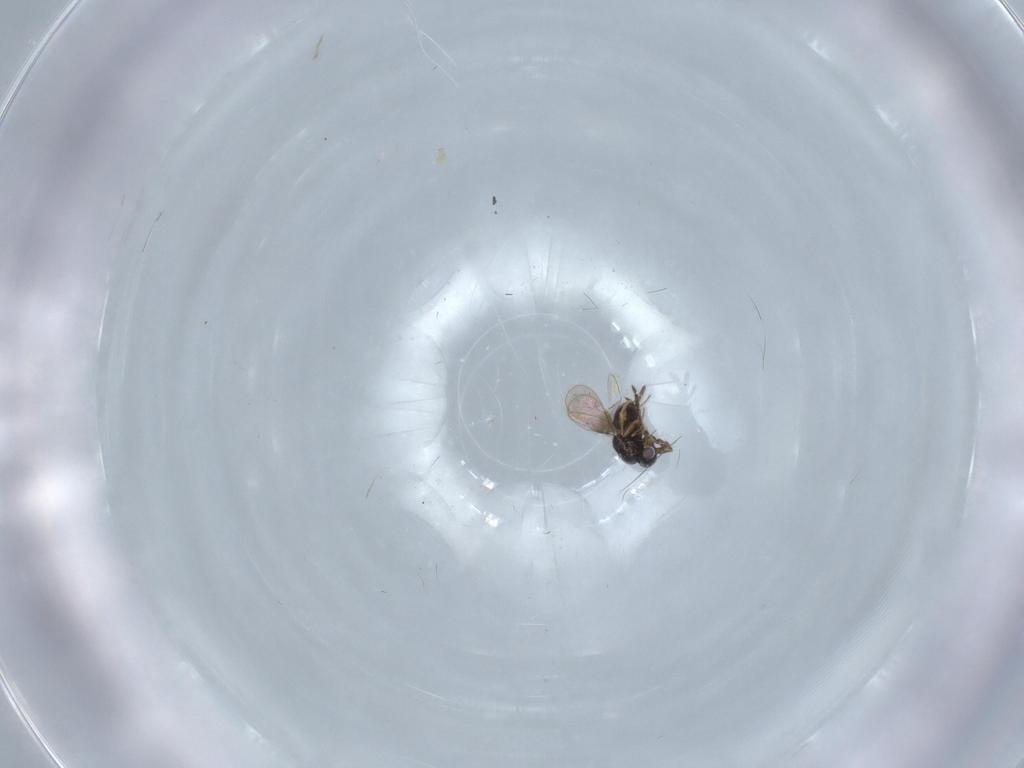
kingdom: Animalia
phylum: Arthropoda
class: Insecta
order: Hymenoptera
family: Ceraphronidae
